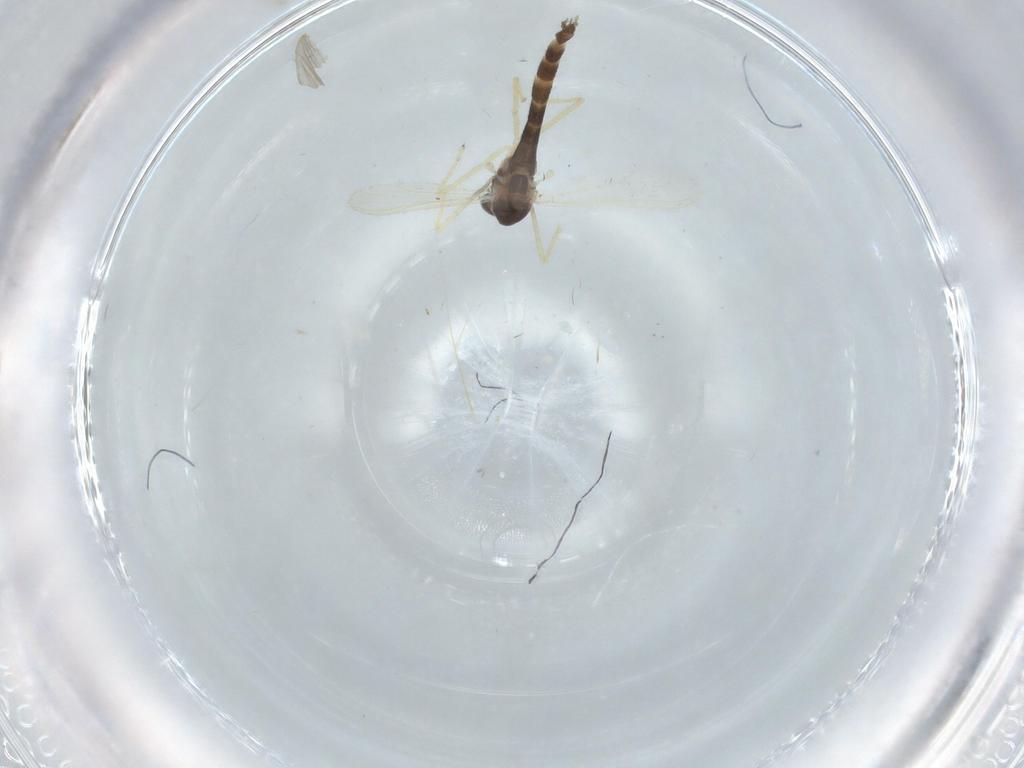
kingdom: Animalia
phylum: Arthropoda
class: Insecta
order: Diptera
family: Chironomidae
